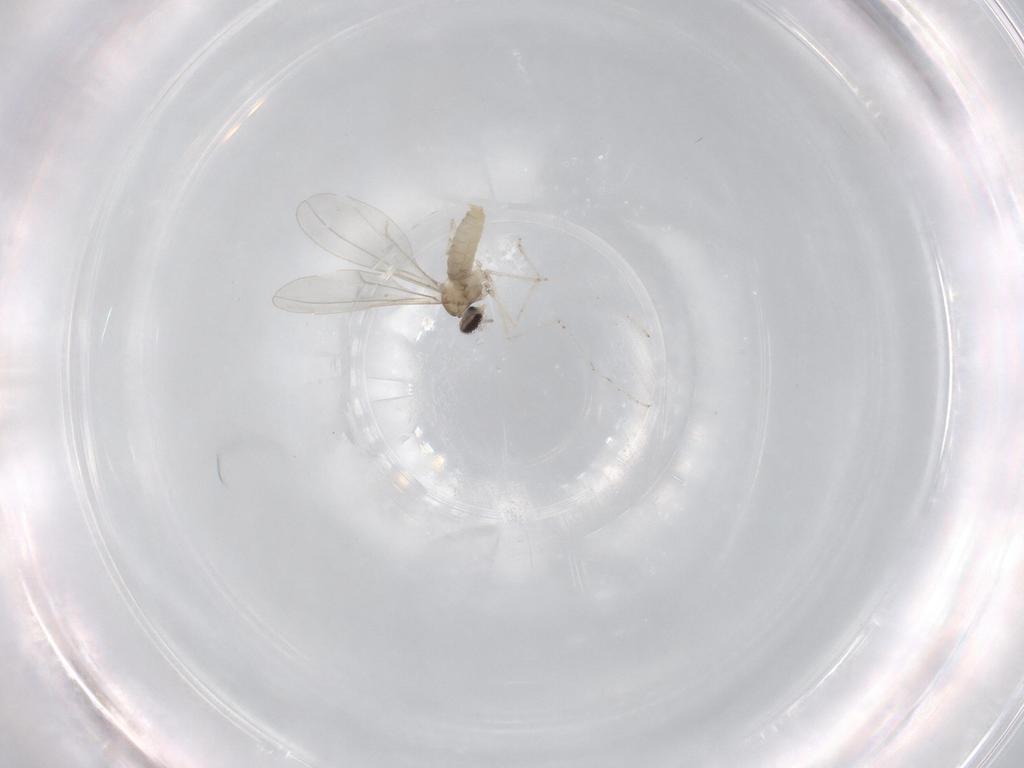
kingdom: Animalia
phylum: Arthropoda
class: Insecta
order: Diptera
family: Cecidomyiidae
